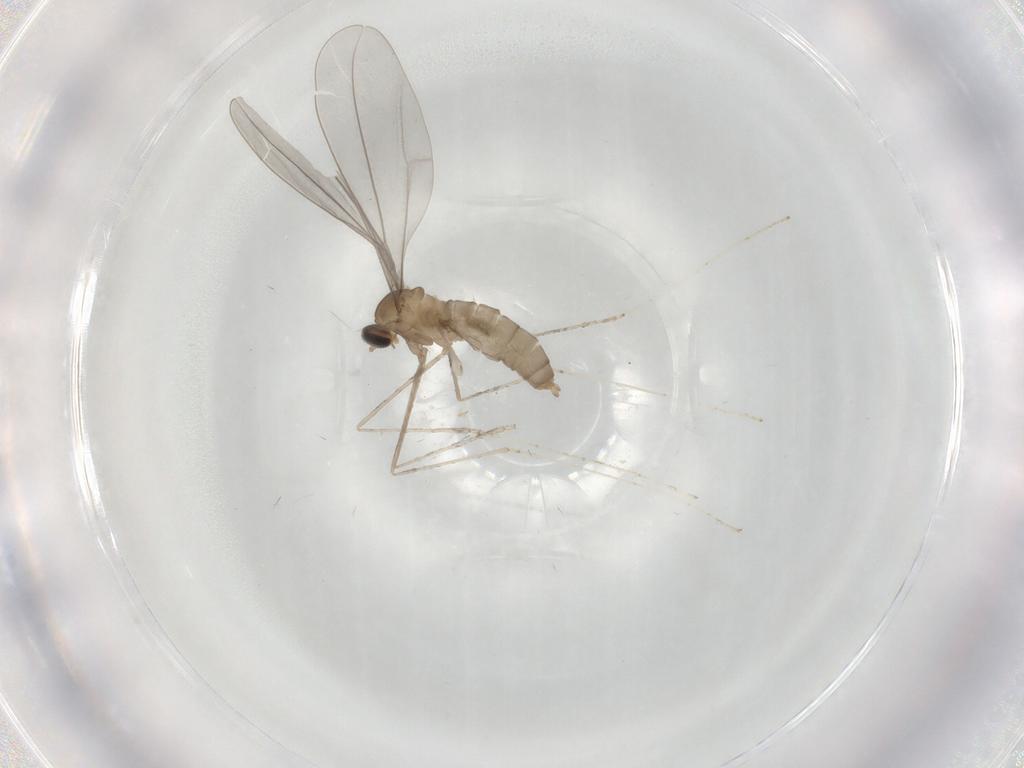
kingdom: Animalia
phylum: Arthropoda
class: Insecta
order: Diptera
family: Cecidomyiidae
